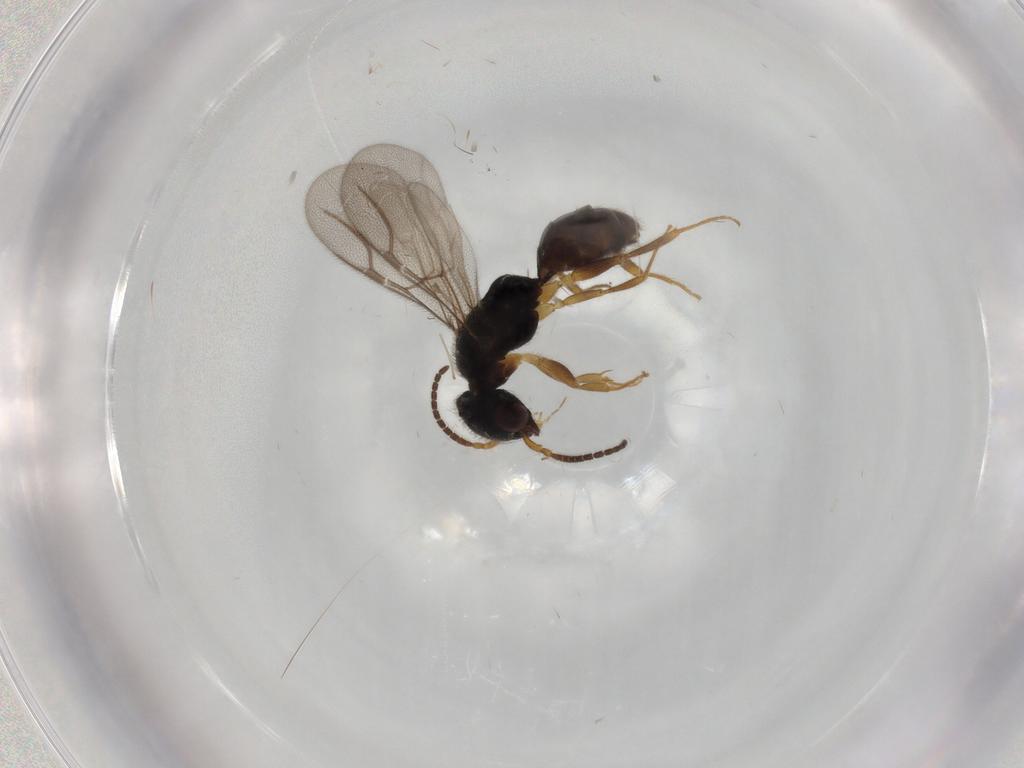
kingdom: Animalia
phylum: Arthropoda
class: Insecta
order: Hymenoptera
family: Bethylidae
